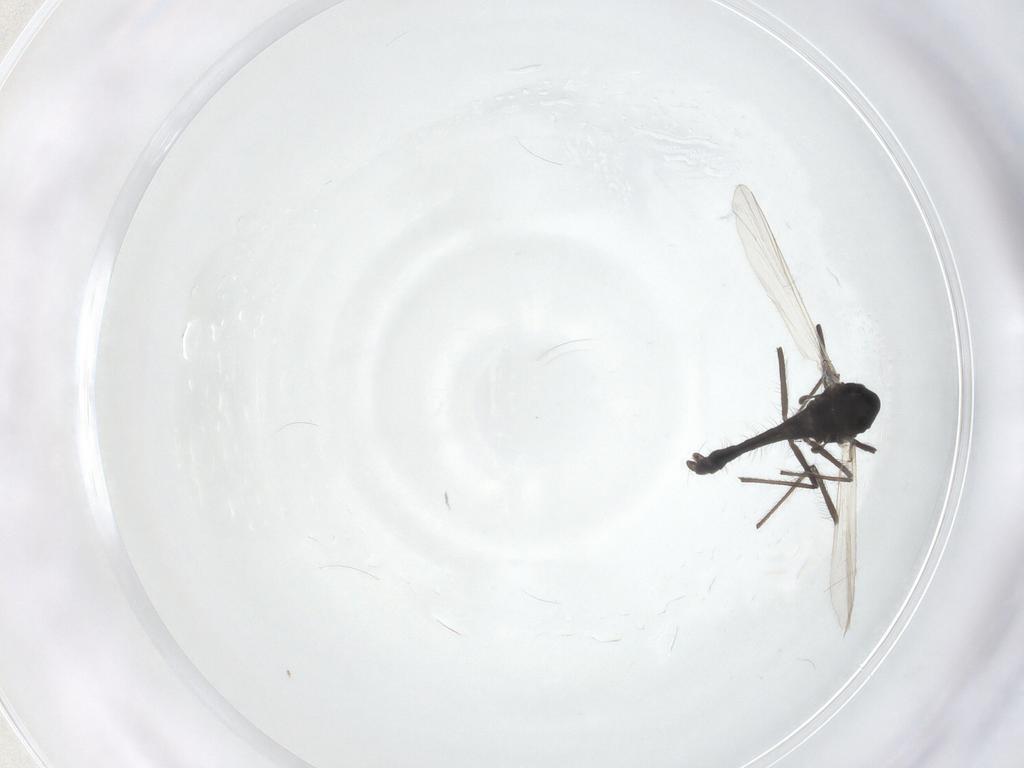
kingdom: Animalia
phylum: Arthropoda
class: Insecta
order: Diptera
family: Chironomidae
